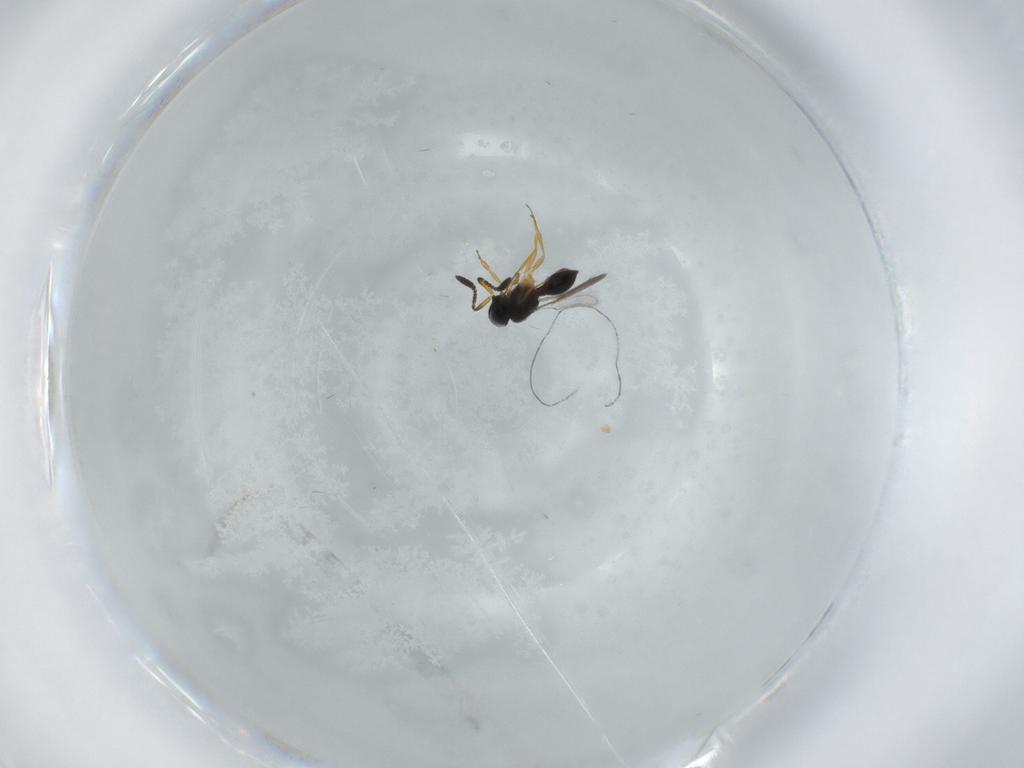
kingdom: Animalia
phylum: Arthropoda
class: Insecta
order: Hymenoptera
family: Scelionidae
